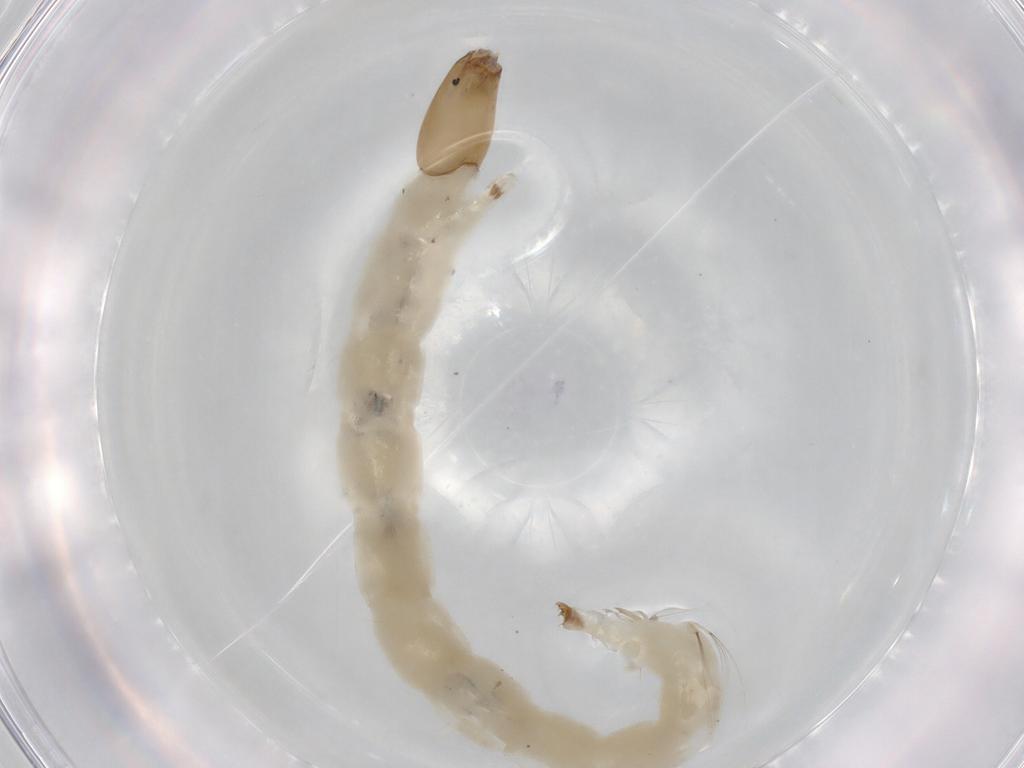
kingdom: Animalia
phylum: Arthropoda
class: Insecta
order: Diptera
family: Chironomidae
